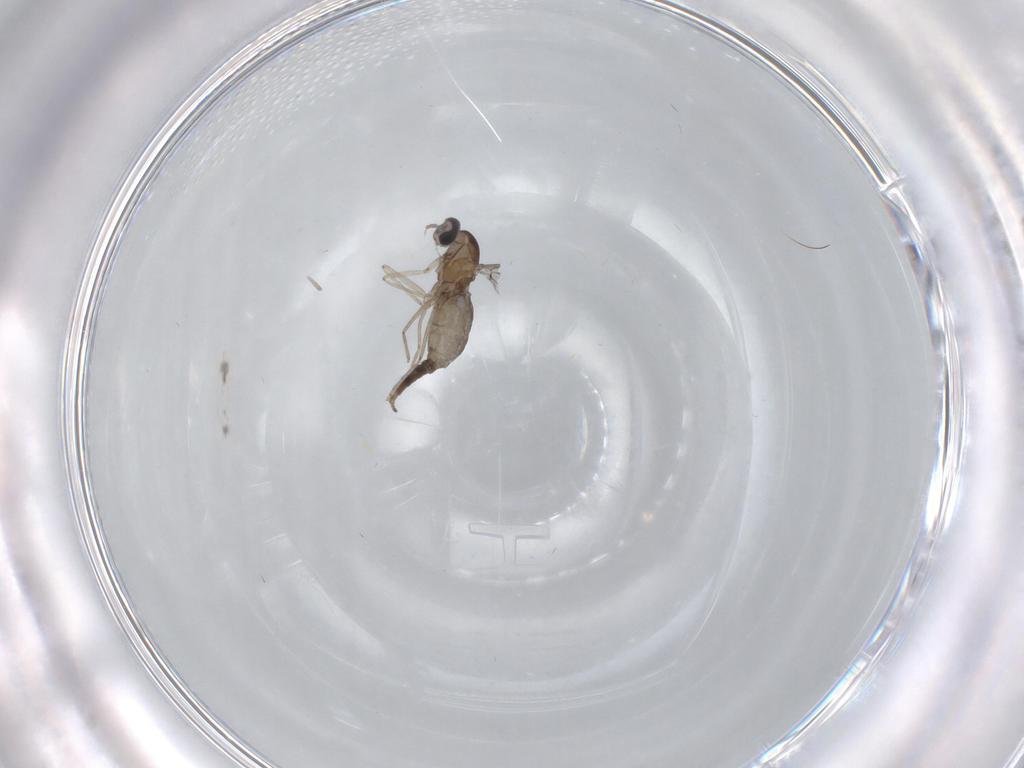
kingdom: Animalia
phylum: Arthropoda
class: Insecta
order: Diptera
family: Cecidomyiidae
